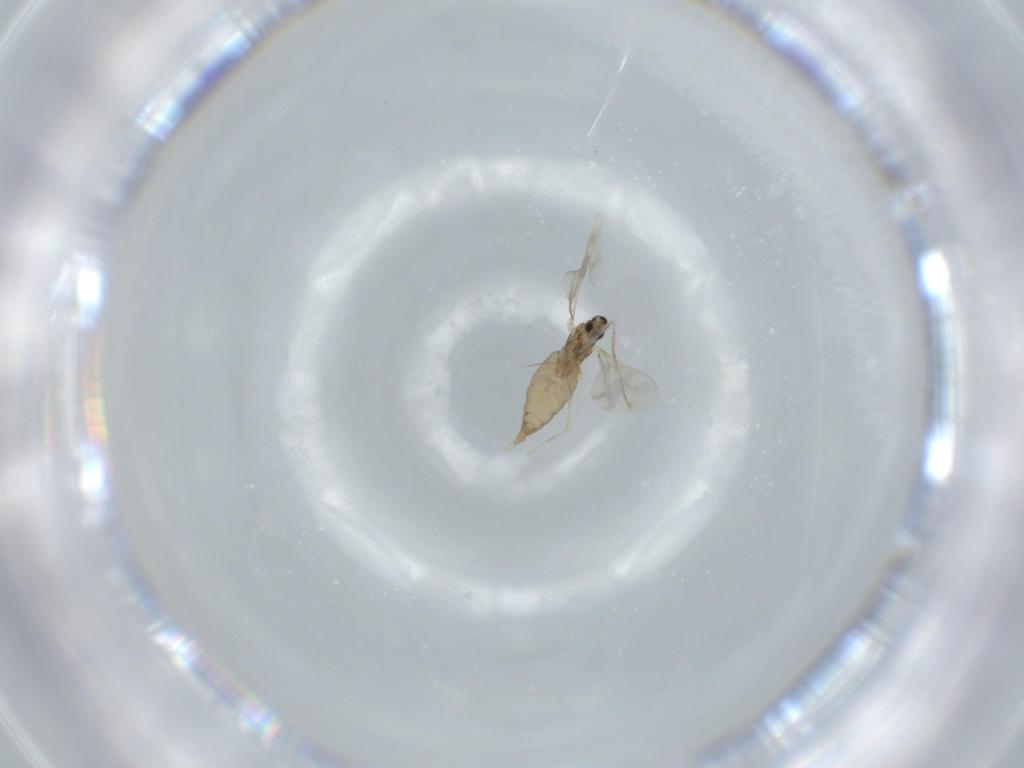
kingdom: Animalia
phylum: Arthropoda
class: Insecta
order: Diptera
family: Cecidomyiidae
